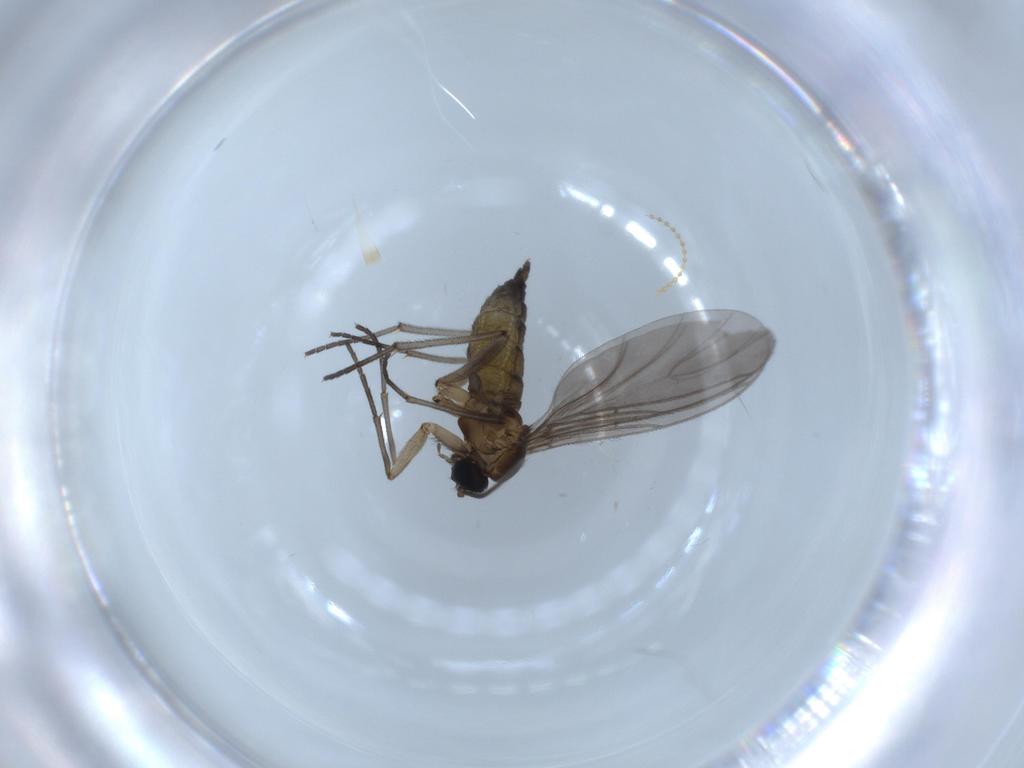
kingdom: Animalia
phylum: Arthropoda
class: Insecta
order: Diptera
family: Sciaridae
